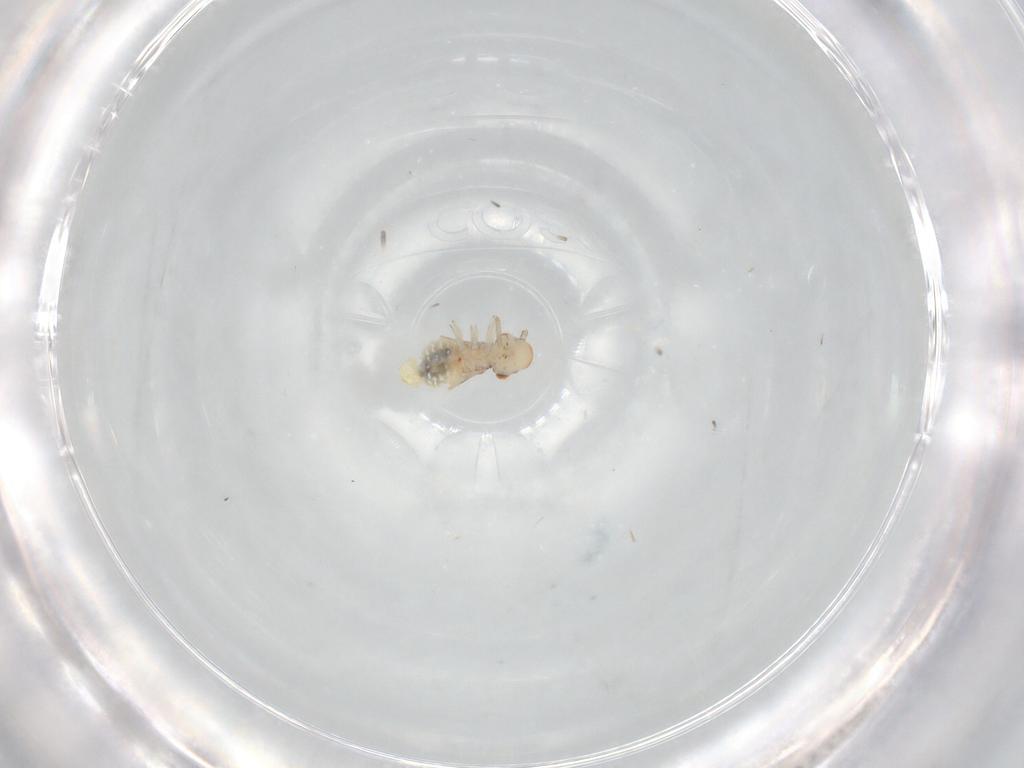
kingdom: Animalia
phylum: Arthropoda
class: Insecta
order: Psocodea
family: Caeciliusidae
